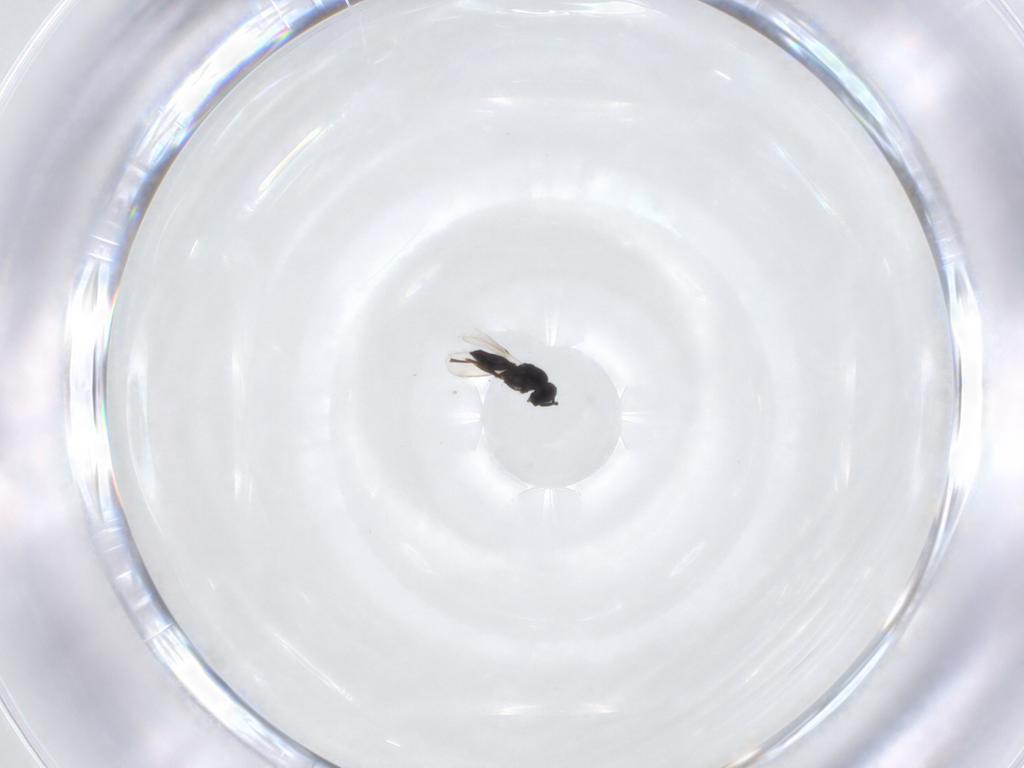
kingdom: Animalia
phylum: Arthropoda
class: Insecta
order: Hymenoptera
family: Scelionidae
